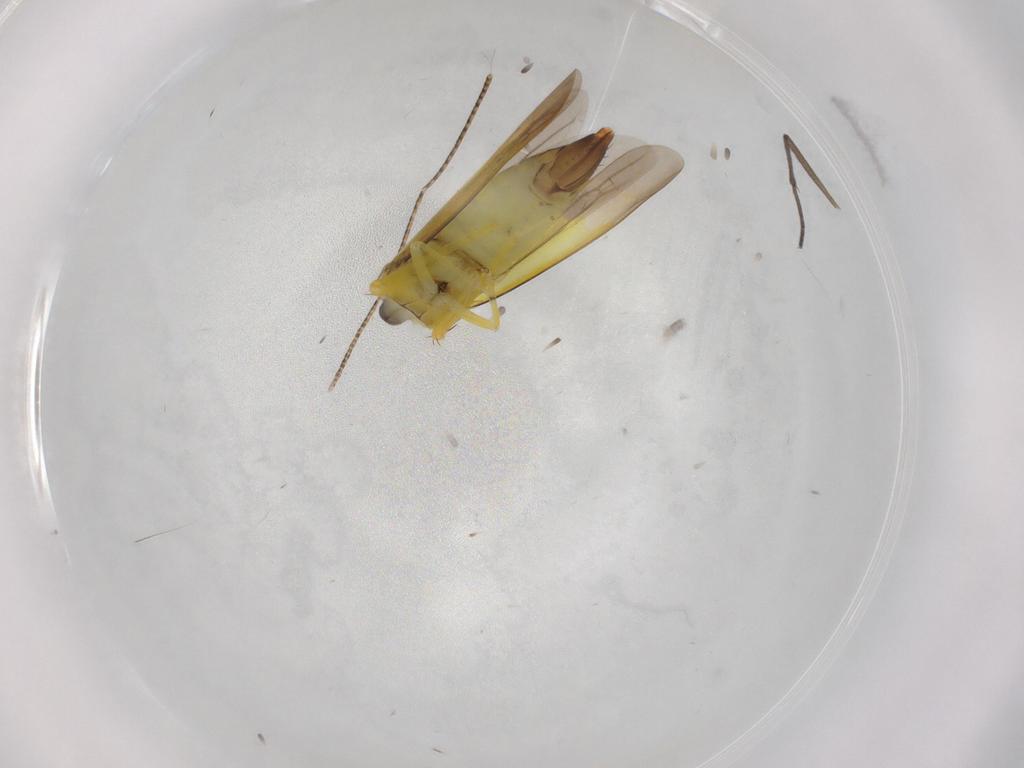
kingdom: Animalia
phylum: Arthropoda
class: Insecta
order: Hemiptera
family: Cicadellidae
